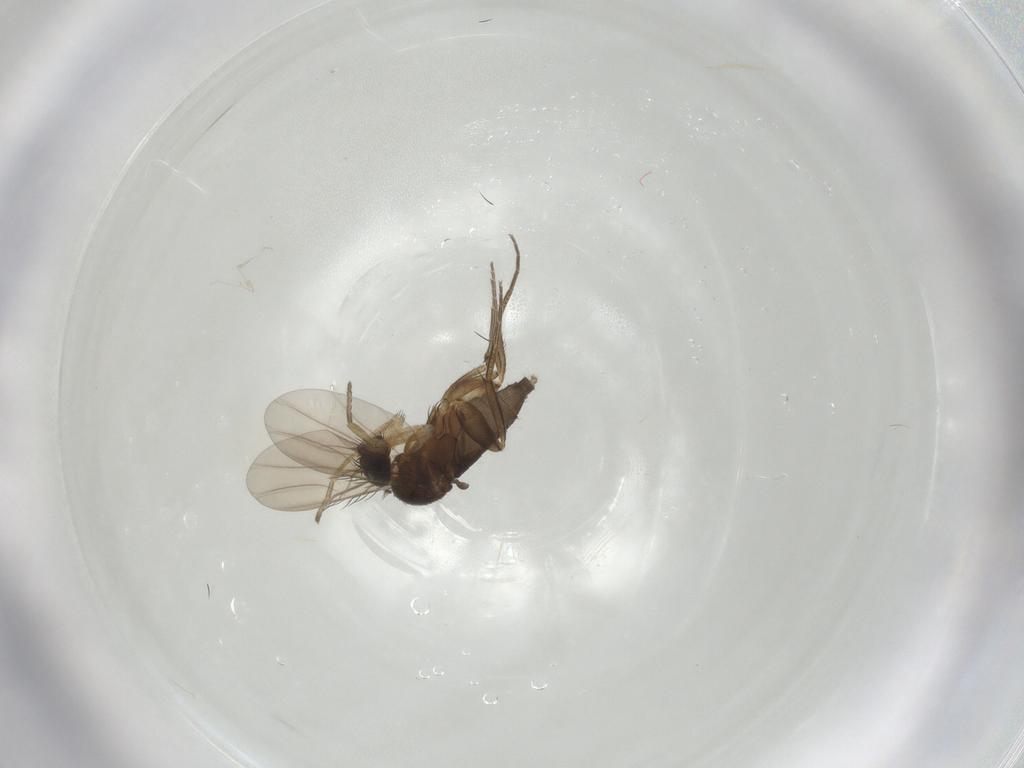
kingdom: Animalia
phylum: Arthropoda
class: Insecta
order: Diptera
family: Phoridae
